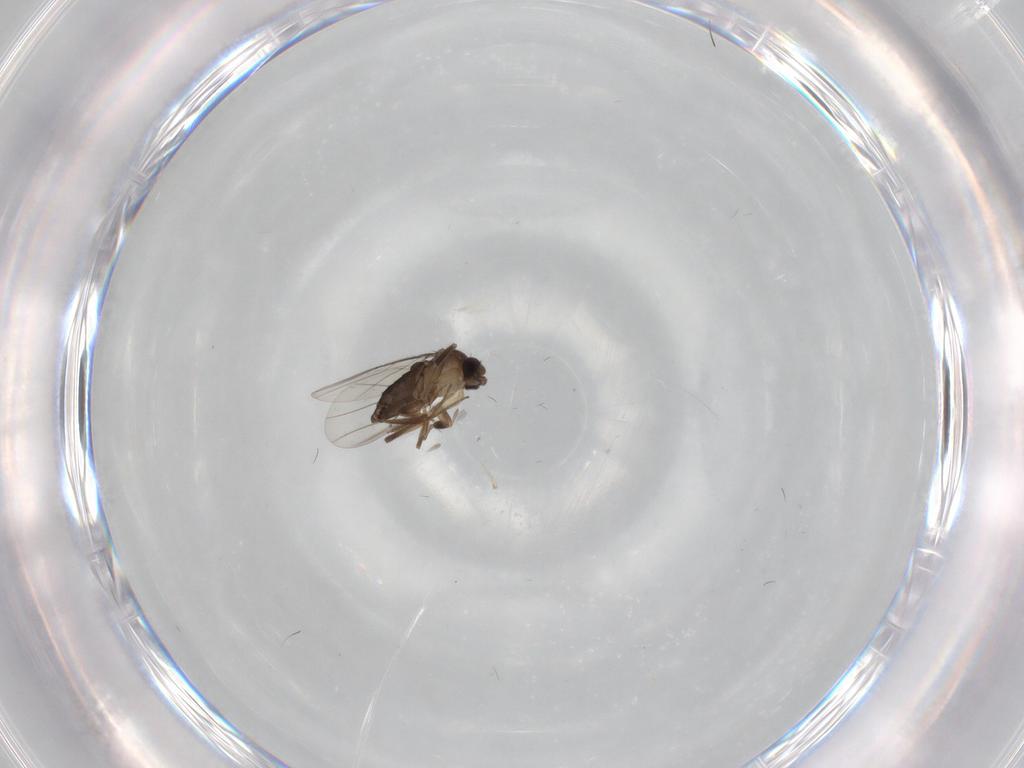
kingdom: Animalia
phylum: Arthropoda
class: Insecta
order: Diptera
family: Phoridae
